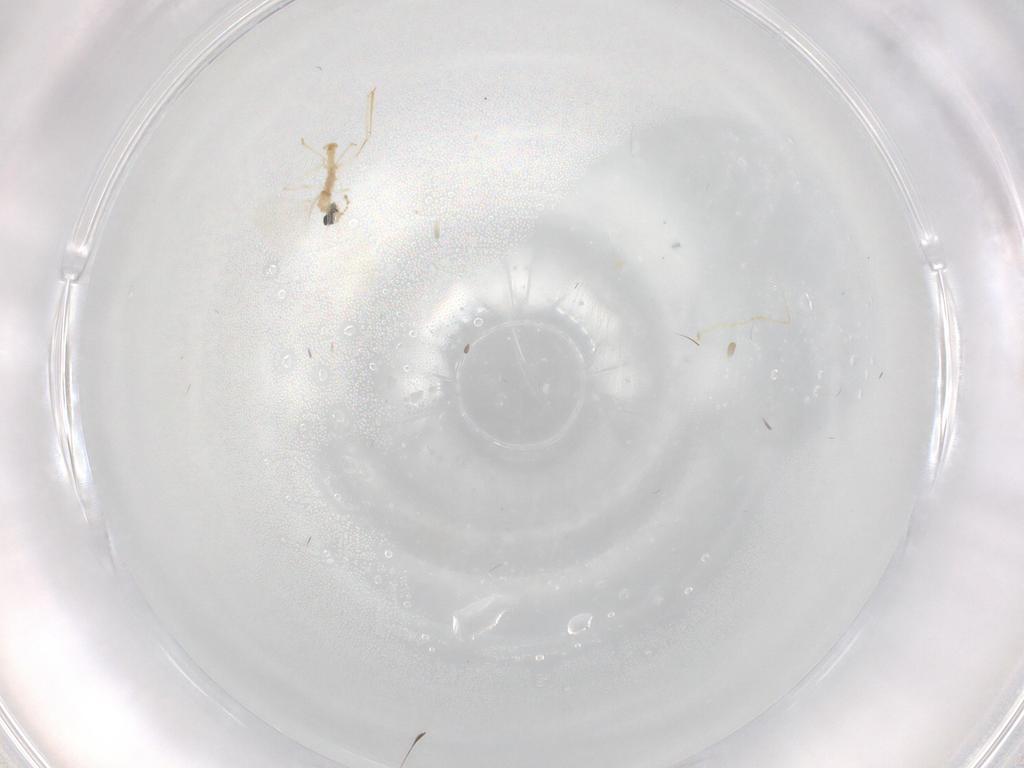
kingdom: Animalia
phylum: Arthropoda
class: Insecta
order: Diptera
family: Cecidomyiidae
